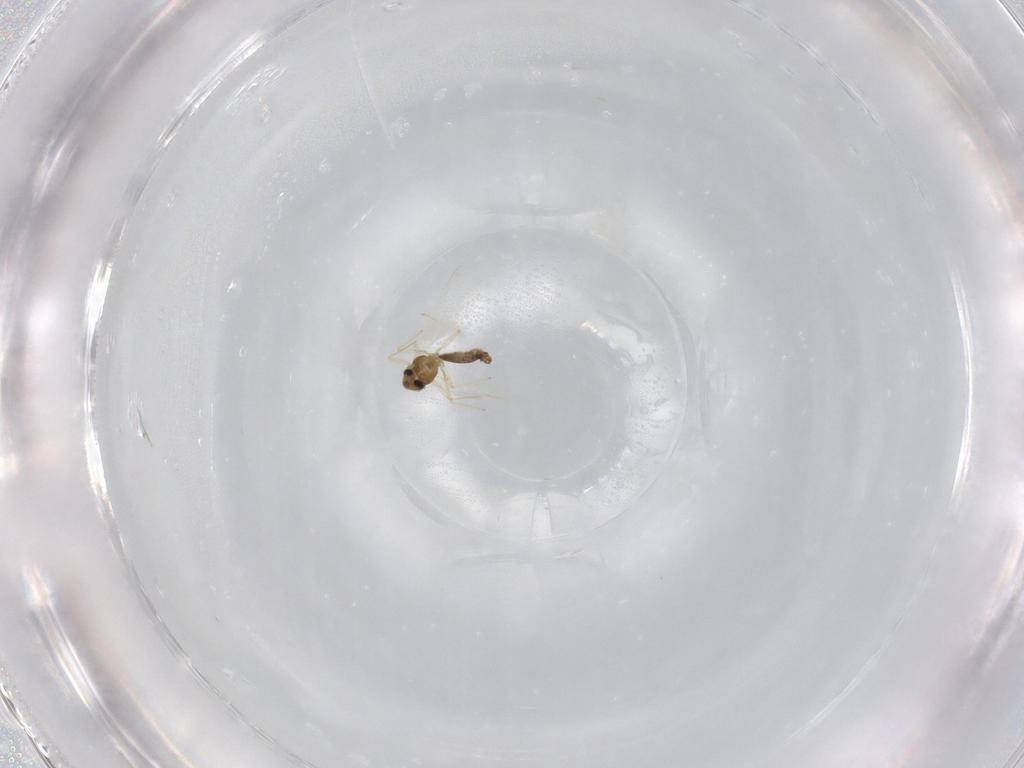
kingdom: Animalia
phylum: Arthropoda
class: Insecta
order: Diptera
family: Chironomidae
